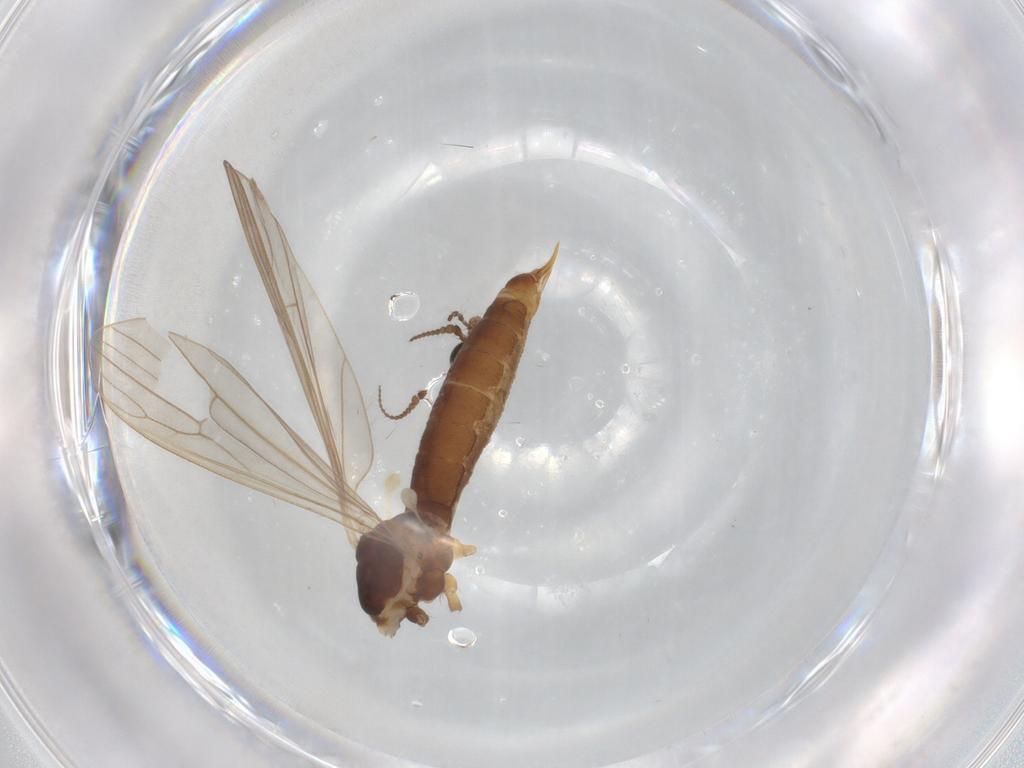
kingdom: Animalia
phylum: Arthropoda
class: Insecta
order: Diptera
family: Limoniidae
